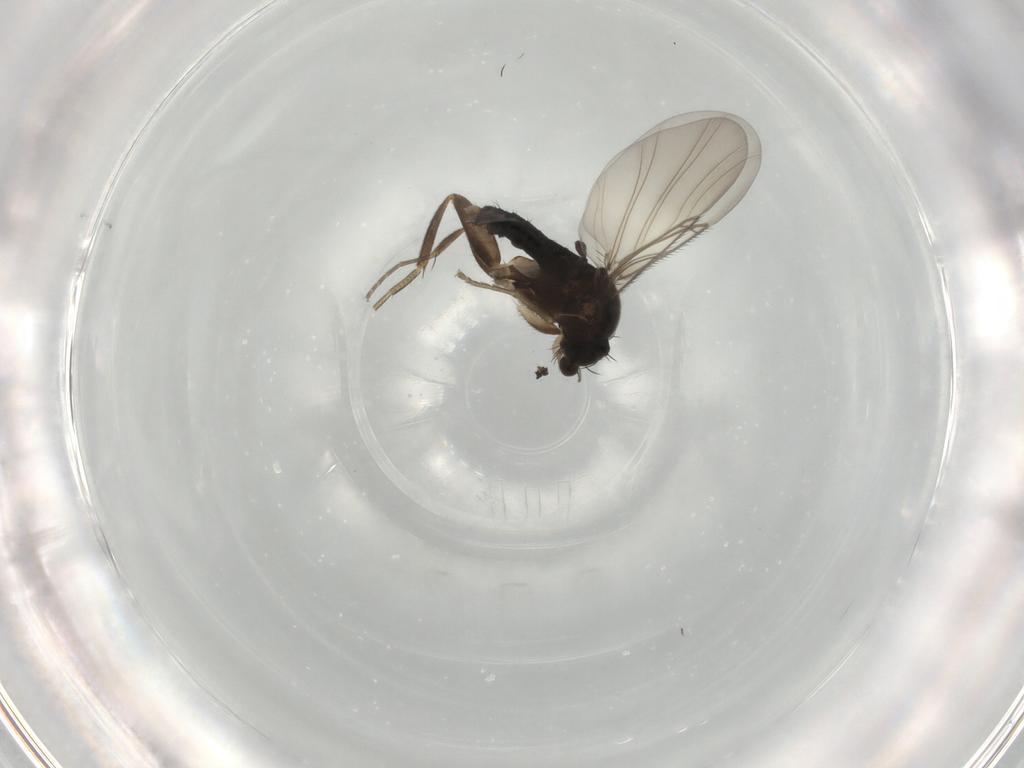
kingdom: Animalia
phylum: Arthropoda
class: Insecta
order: Diptera
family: Phoridae
